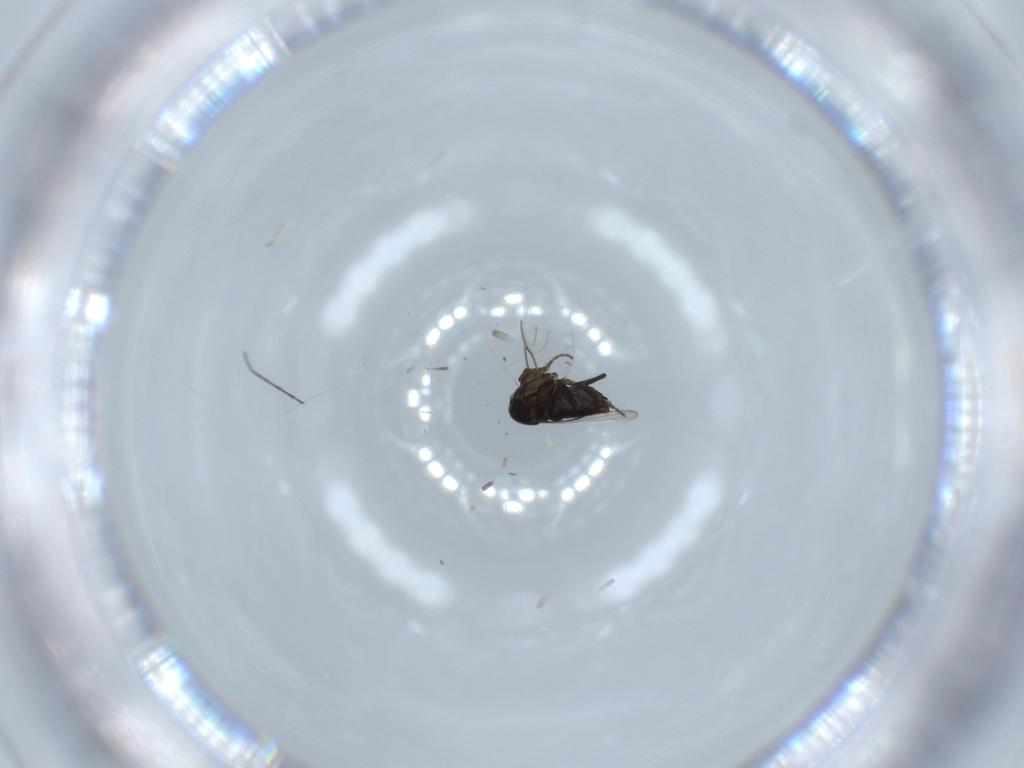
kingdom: Animalia
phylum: Arthropoda
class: Insecta
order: Diptera
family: Phoridae
